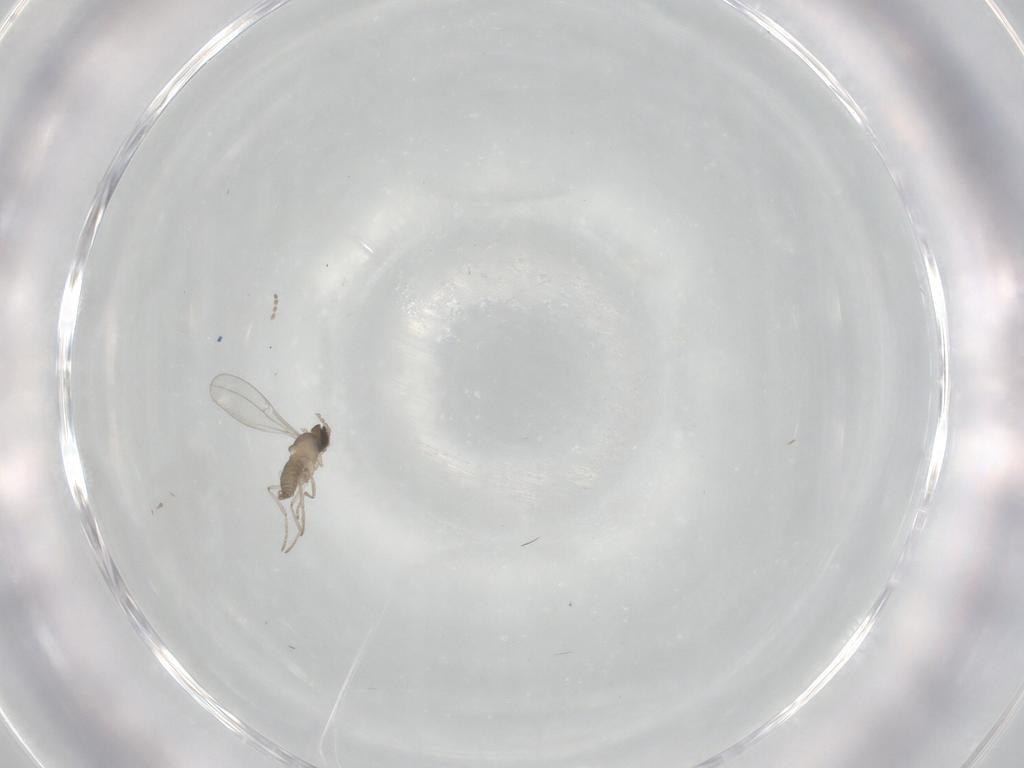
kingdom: Animalia
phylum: Arthropoda
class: Insecta
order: Diptera
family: Chironomidae
